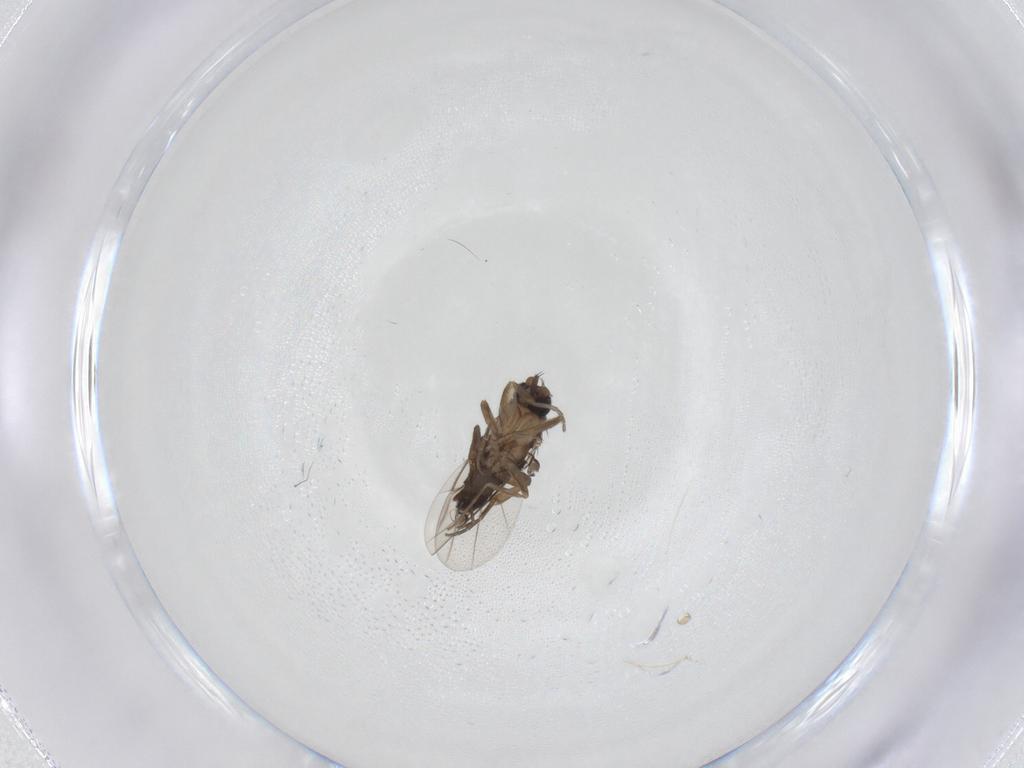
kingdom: Animalia
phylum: Arthropoda
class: Insecta
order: Diptera
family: Phoridae
